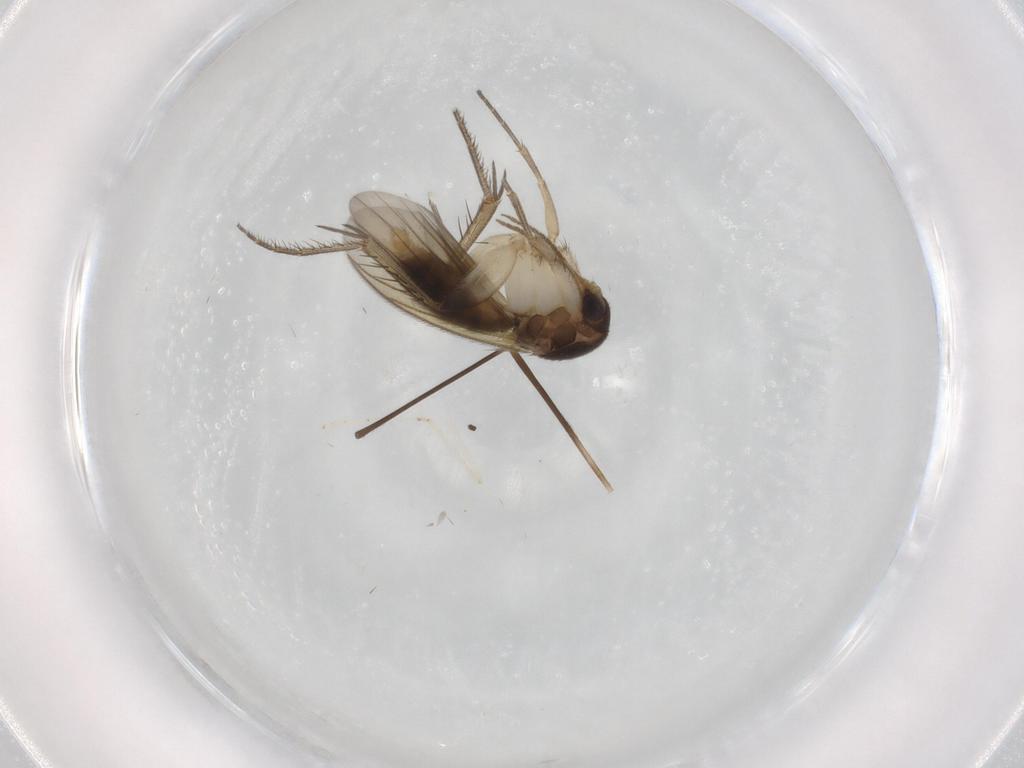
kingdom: Animalia
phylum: Arthropoda
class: Insecta
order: Diptera
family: Cecidomyiidae
